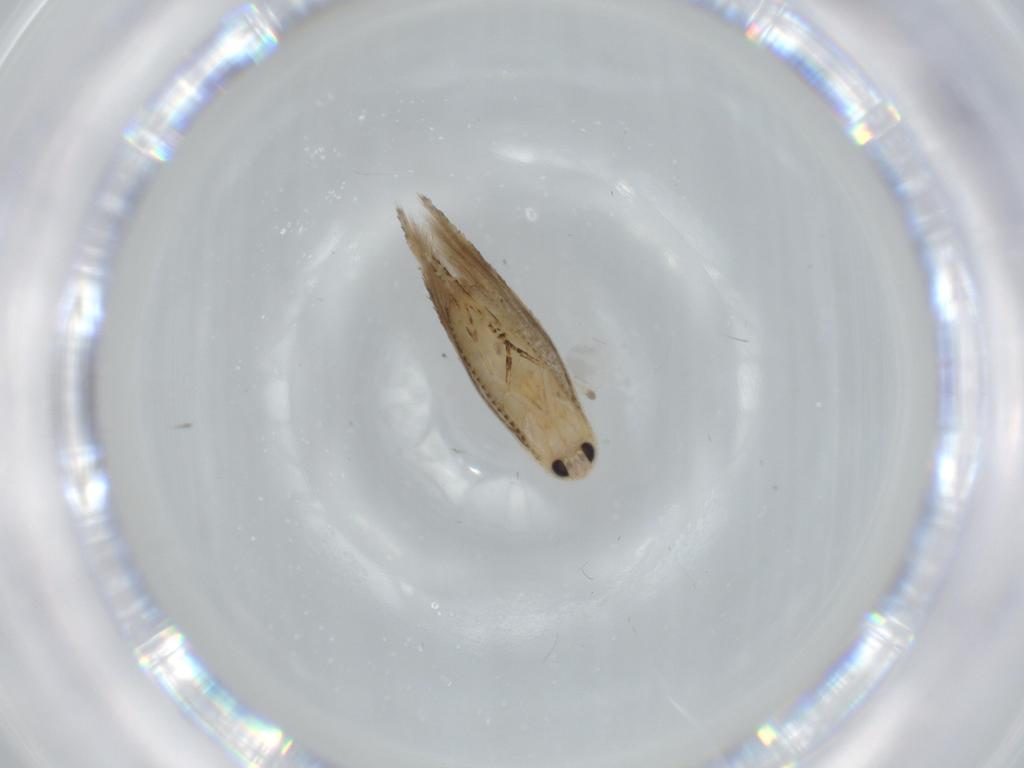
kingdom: Animalia
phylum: Arthropoda
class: Insecta
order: Lepidoptera
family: Bucculatricidae
